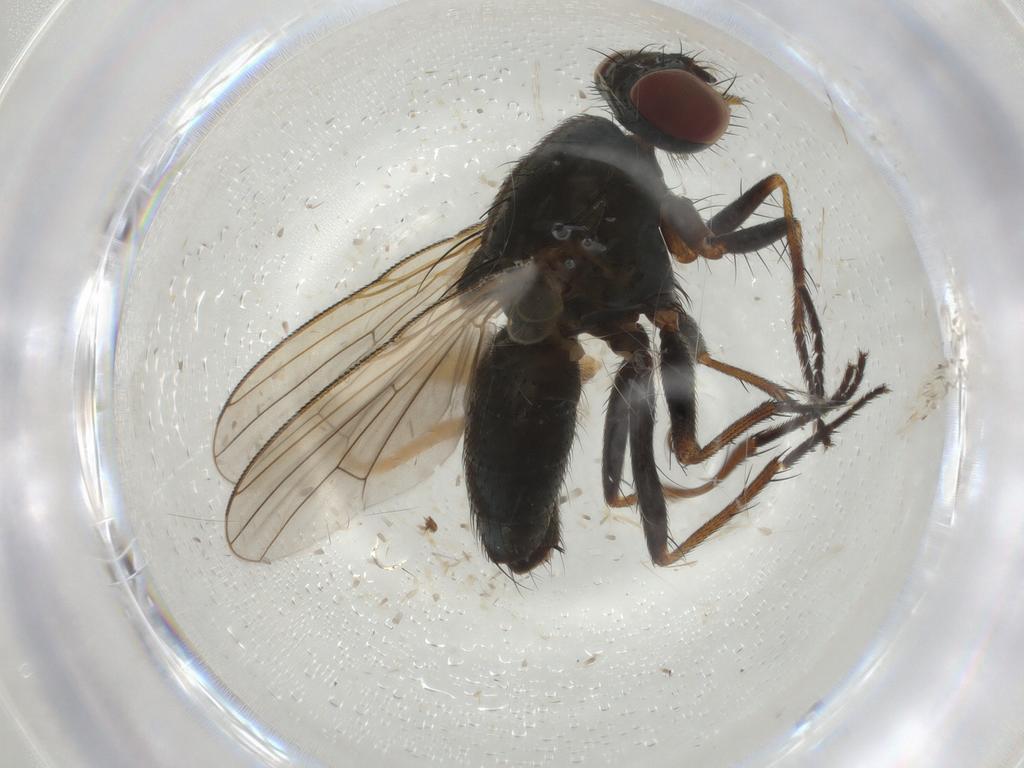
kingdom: Animalia
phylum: Arthropoda
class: Insecta
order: Diptera
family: Muscidae
